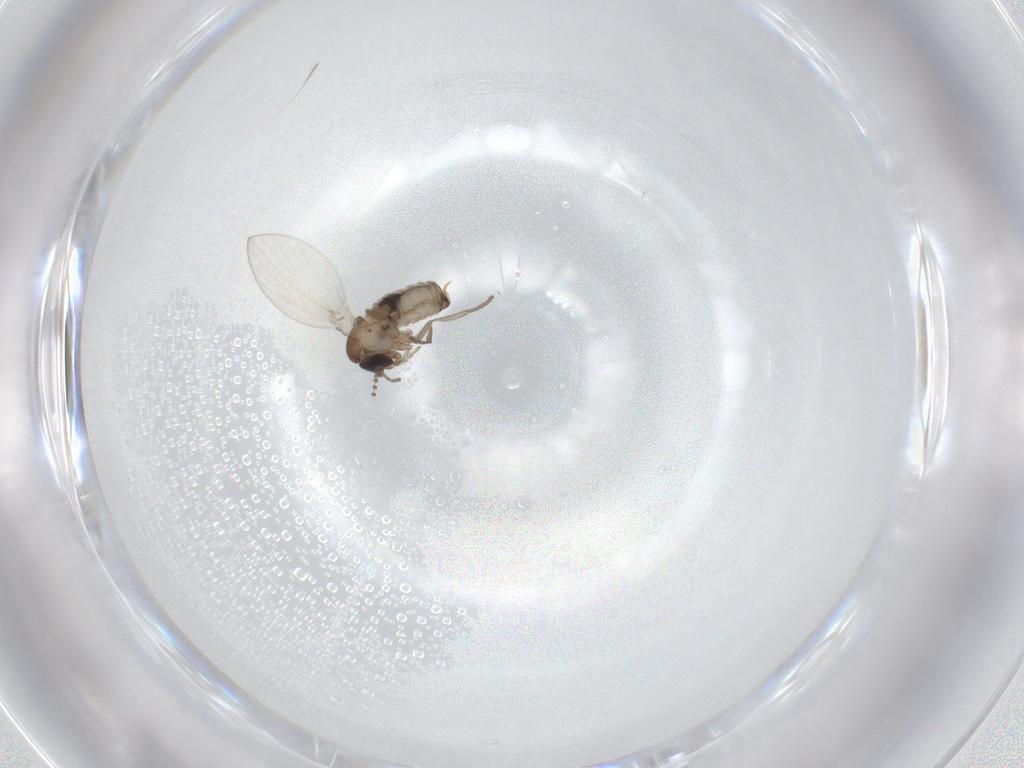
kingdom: Animalia
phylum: Arthropoda
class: Insecta
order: Diptera
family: Psychodidae
